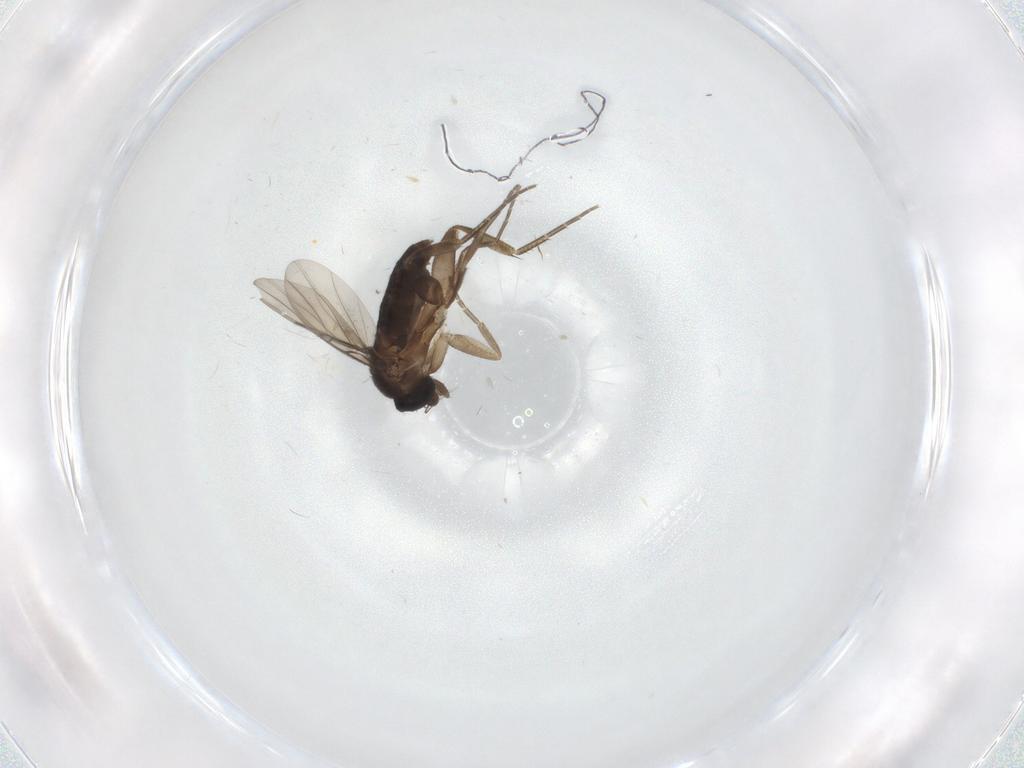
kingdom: Animalia
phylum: Arthropoda
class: Insecta
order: Diptera
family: Phoridae
